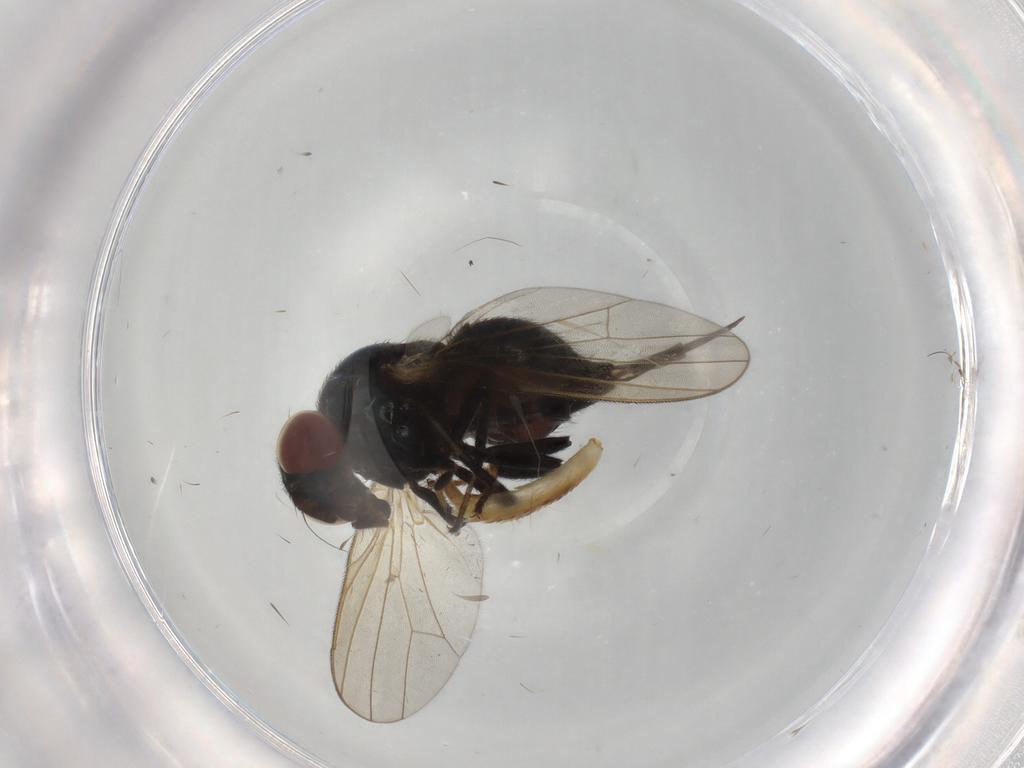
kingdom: Animalia
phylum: Arthropoda
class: Insecta
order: Diptera
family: Lonchaeidae
